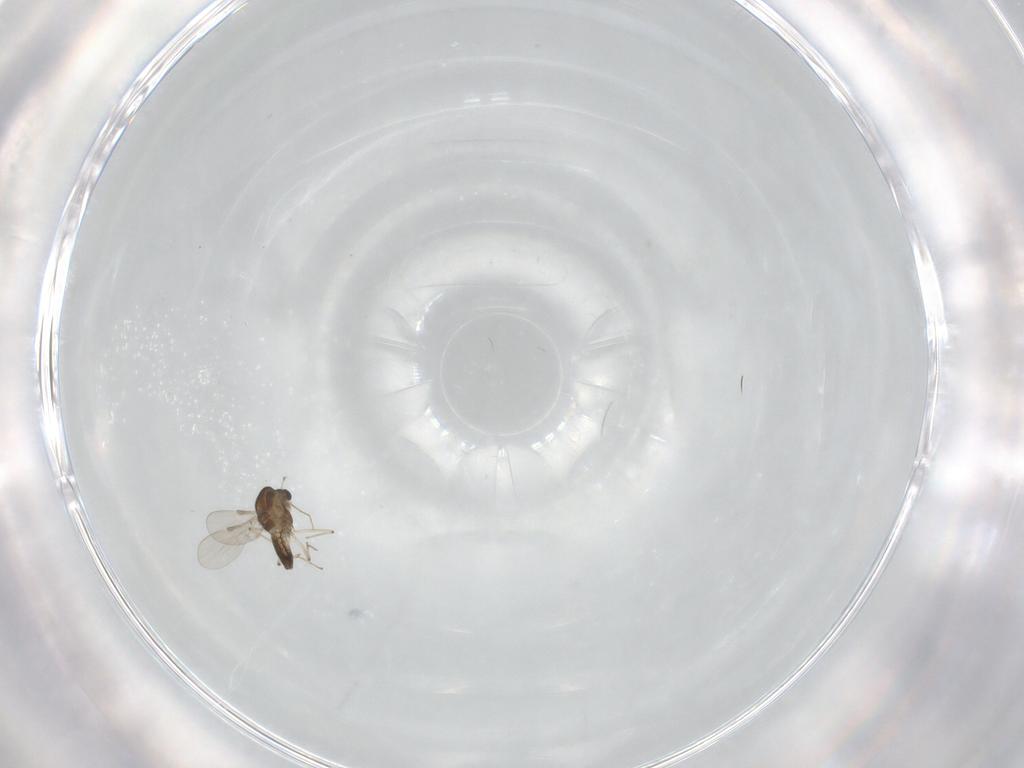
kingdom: Animalia
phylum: Arthropoda
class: Insecta
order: Diptera
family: Chironomidae
